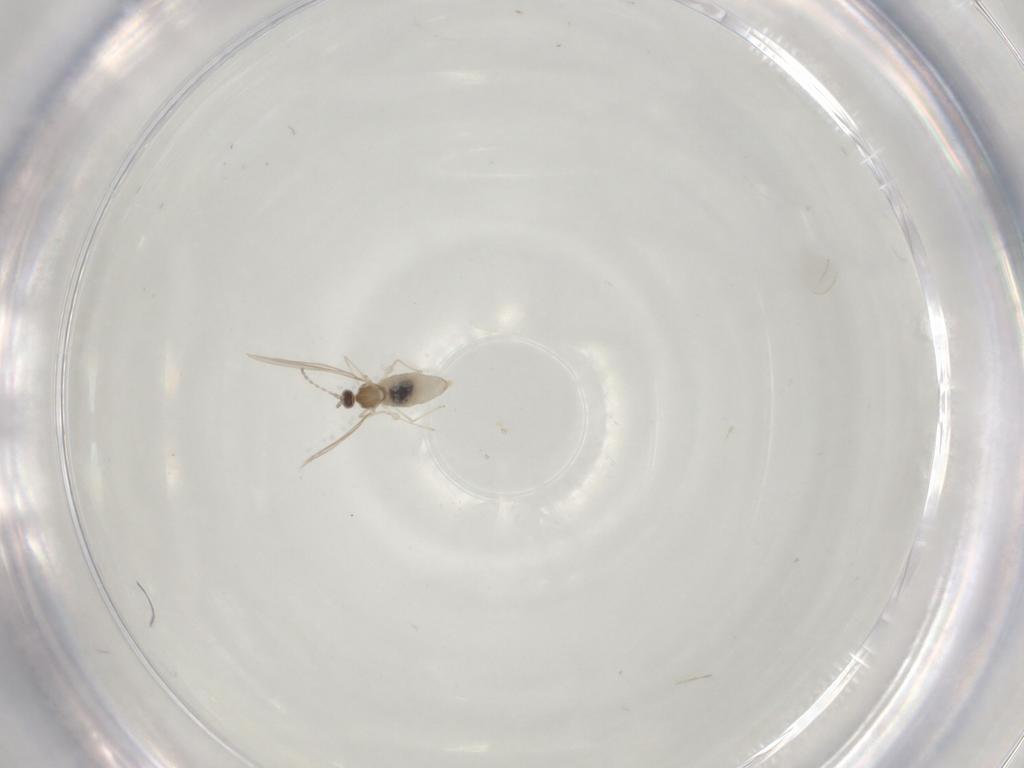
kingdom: Animalia
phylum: Arthropoda
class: Insecta
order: Diptera
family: Cecidomyiidae
